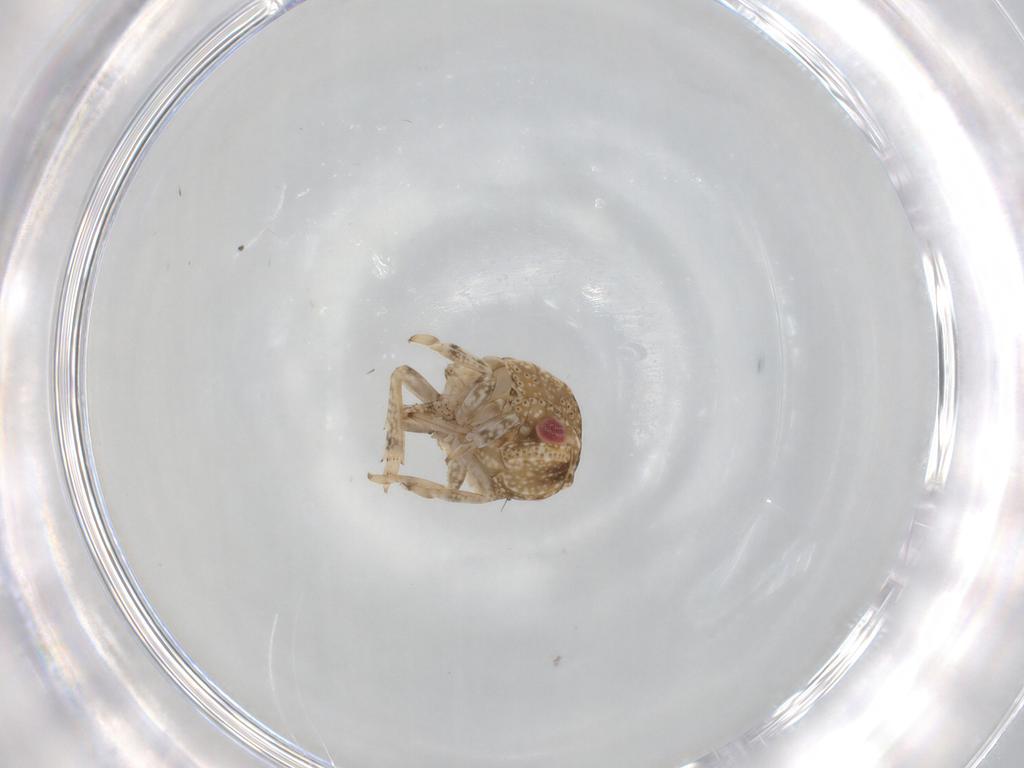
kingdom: Animalia
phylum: Arthropoda
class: Insecta
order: Hemiptera
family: Acanaloniidae
